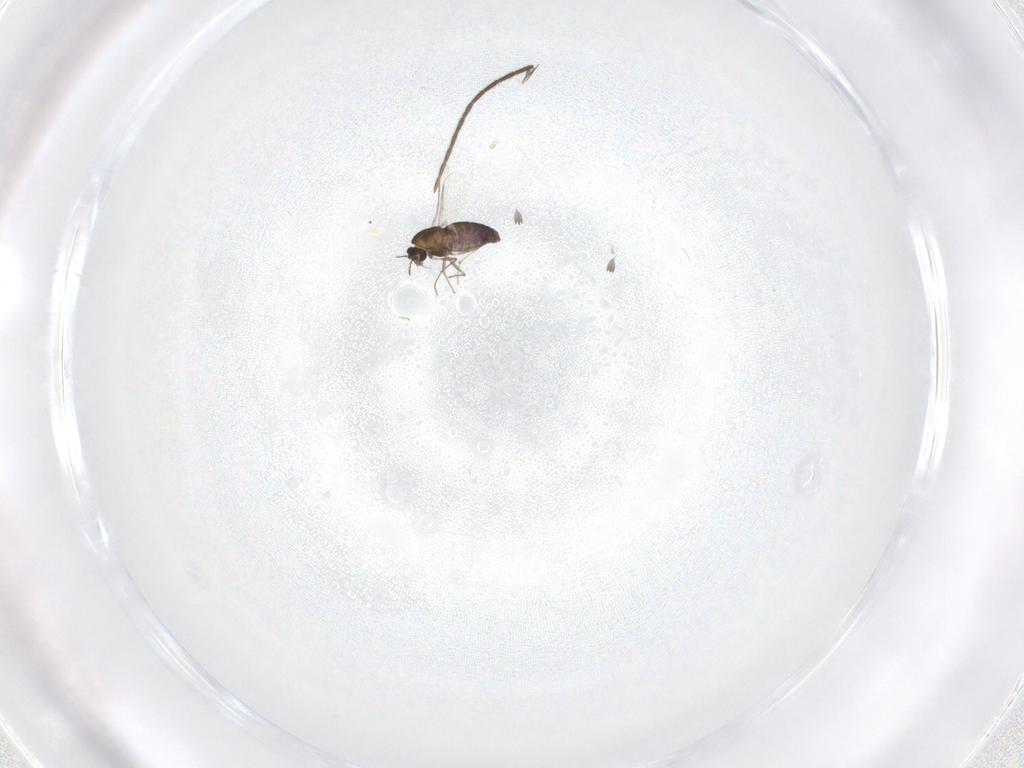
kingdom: Animalia
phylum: Arthropoda
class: Insecta
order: Diptera
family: Chironomidae
